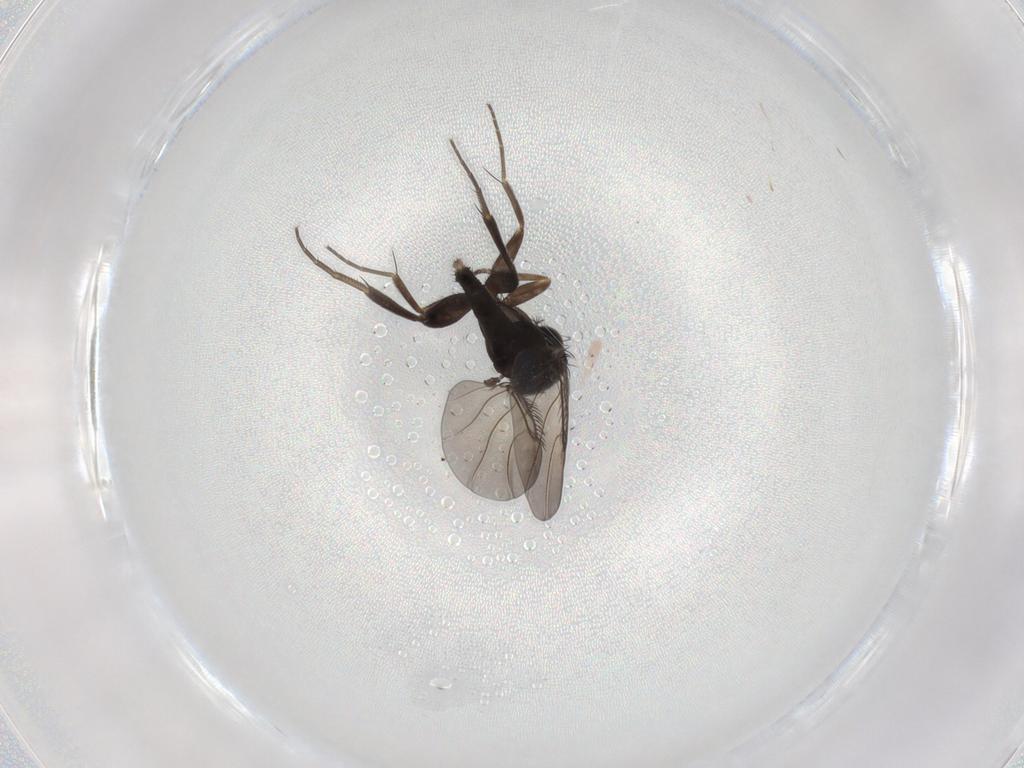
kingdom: Animalia
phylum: Arthropoda
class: Insecta
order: Diptera
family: Phoridae
